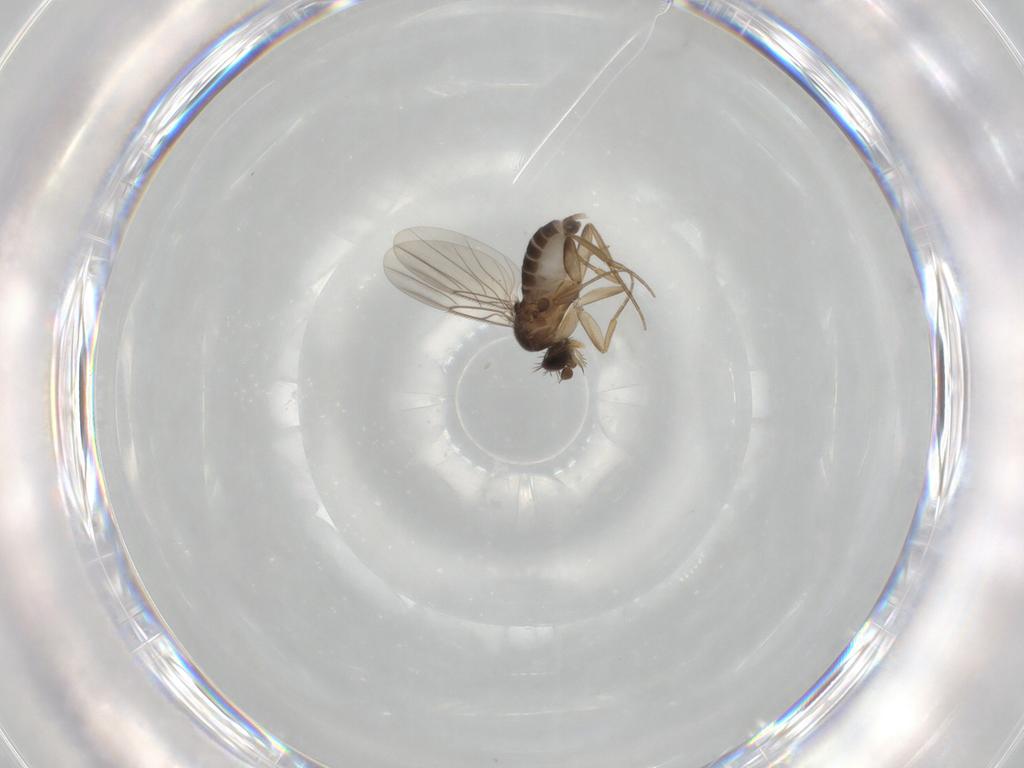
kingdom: Animalia
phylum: Arthropoda
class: Insecta
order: Diptera
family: Phoridae
